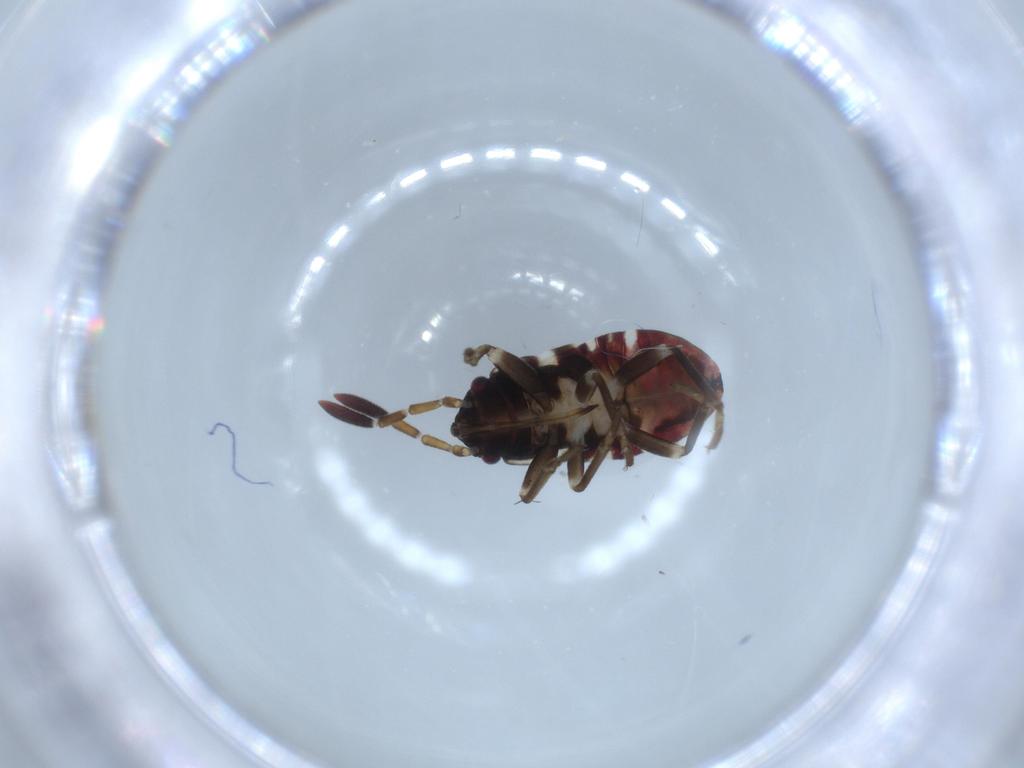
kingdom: Animalia
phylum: Arthropoda
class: Insecta
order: Hemiptera
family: Rhyparochromidae
